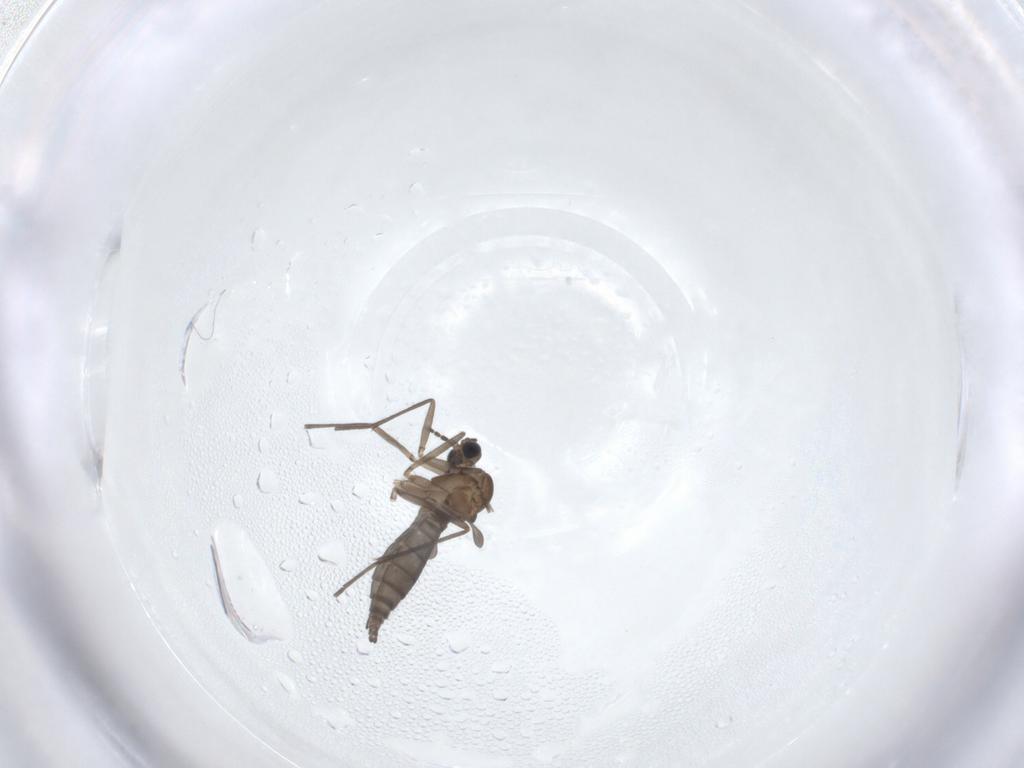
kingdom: Animalia
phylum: Arthropoda
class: Insecta
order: Diptera
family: Sciaridae
